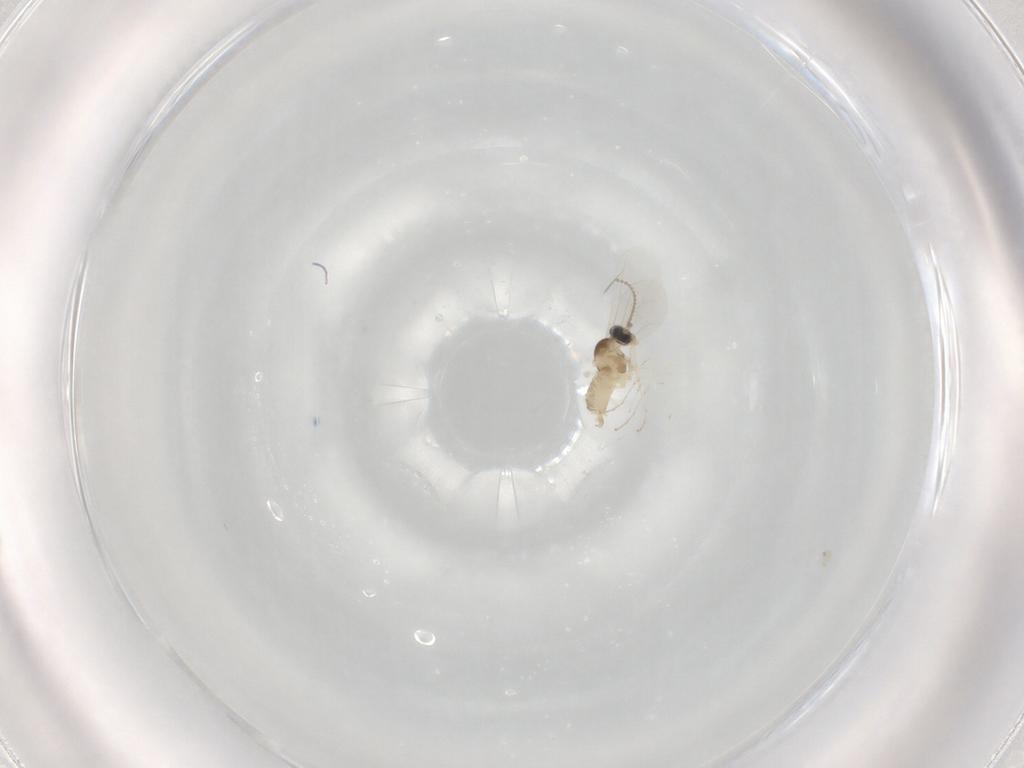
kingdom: Animalia
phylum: Arthropoda
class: Insecta
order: Diptera
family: Cecidomyiidae
